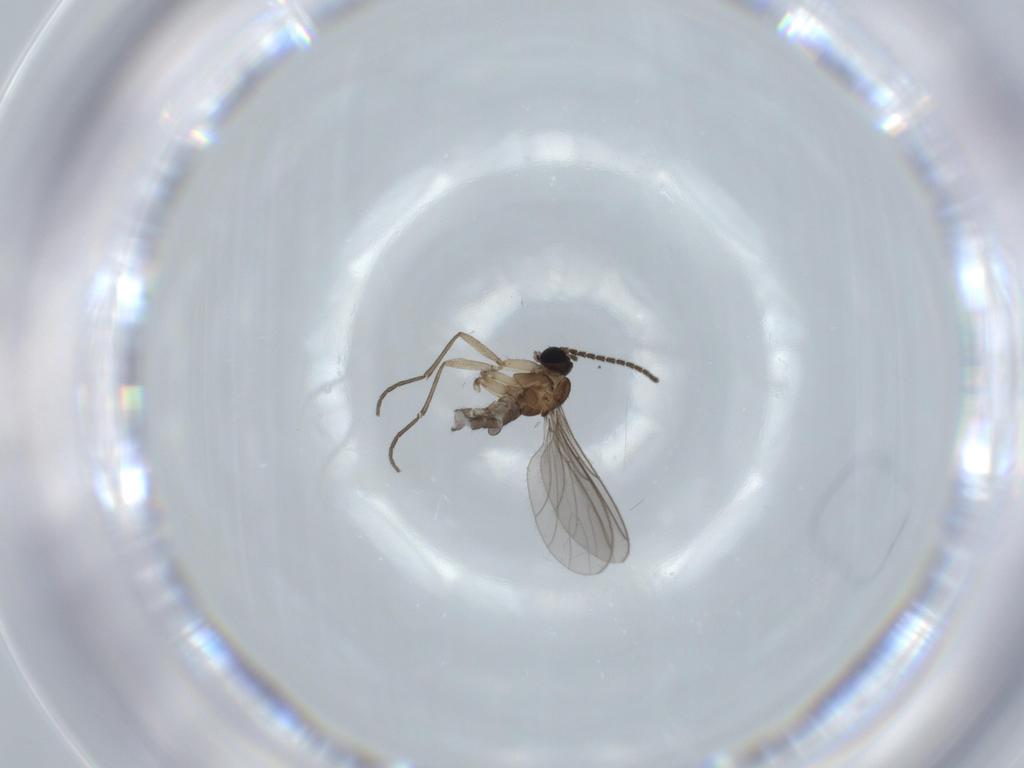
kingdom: Animalia
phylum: Arthropoda
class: Insecta
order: Diptera
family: Sciaridae
